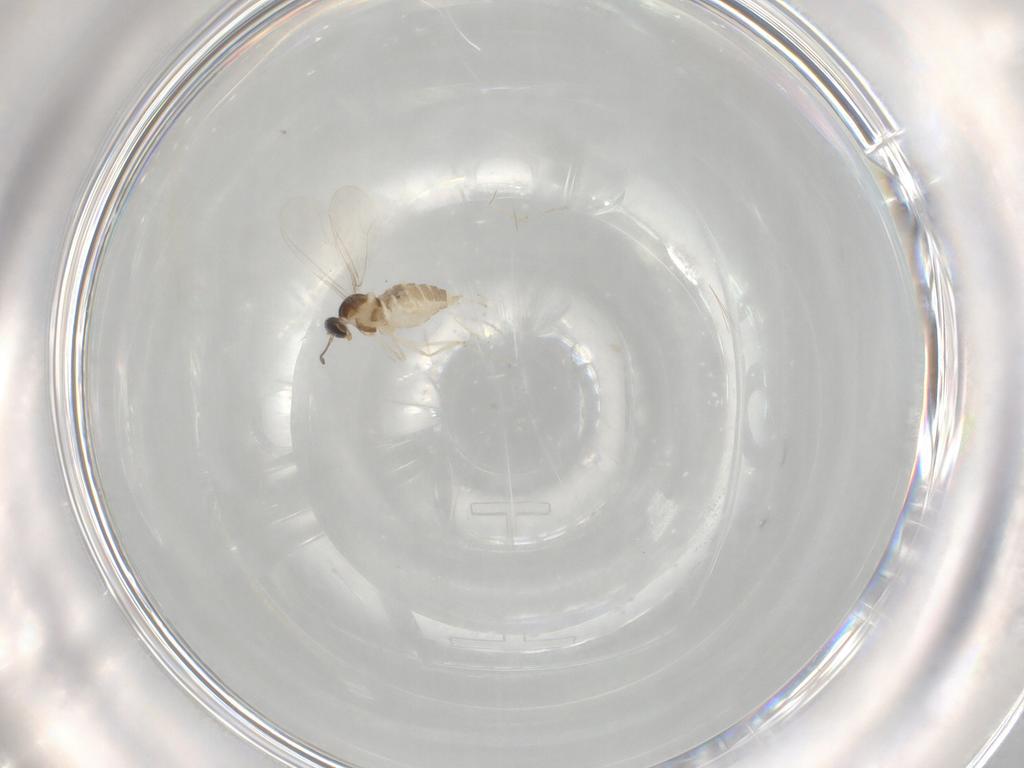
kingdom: Animalia
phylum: Arthropoda
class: Insecta
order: Diptera
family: Cecidomyiidae
